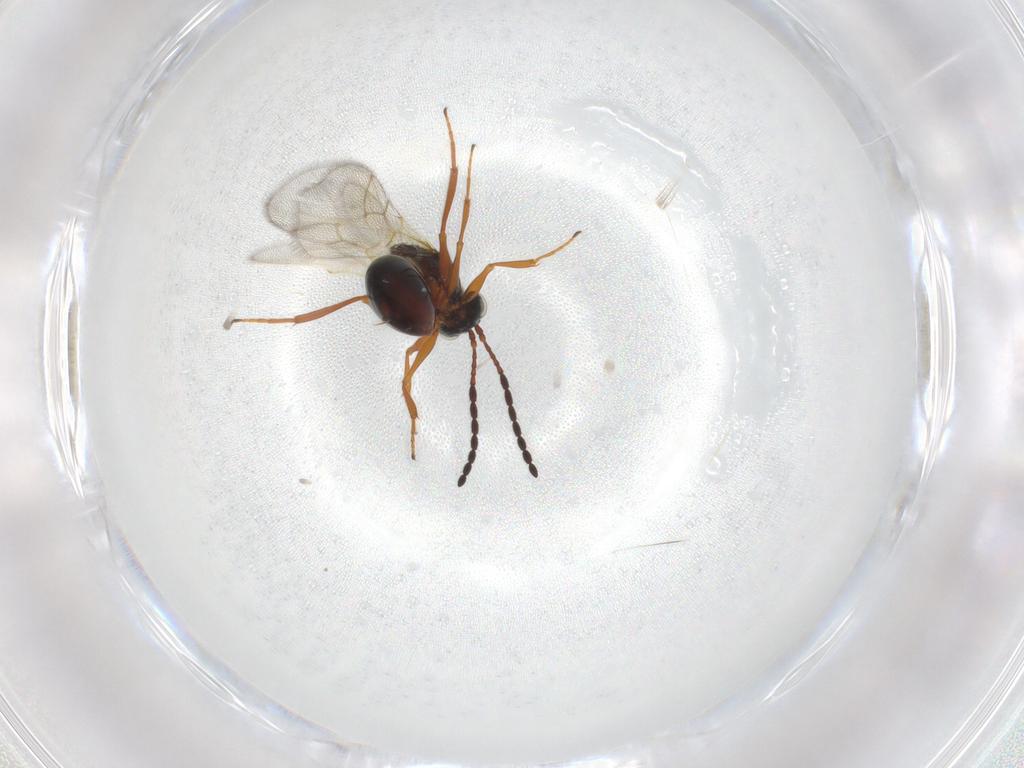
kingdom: Animalia
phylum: Arthropoda
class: Insecta
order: Hymenoptera
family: Figitidae
